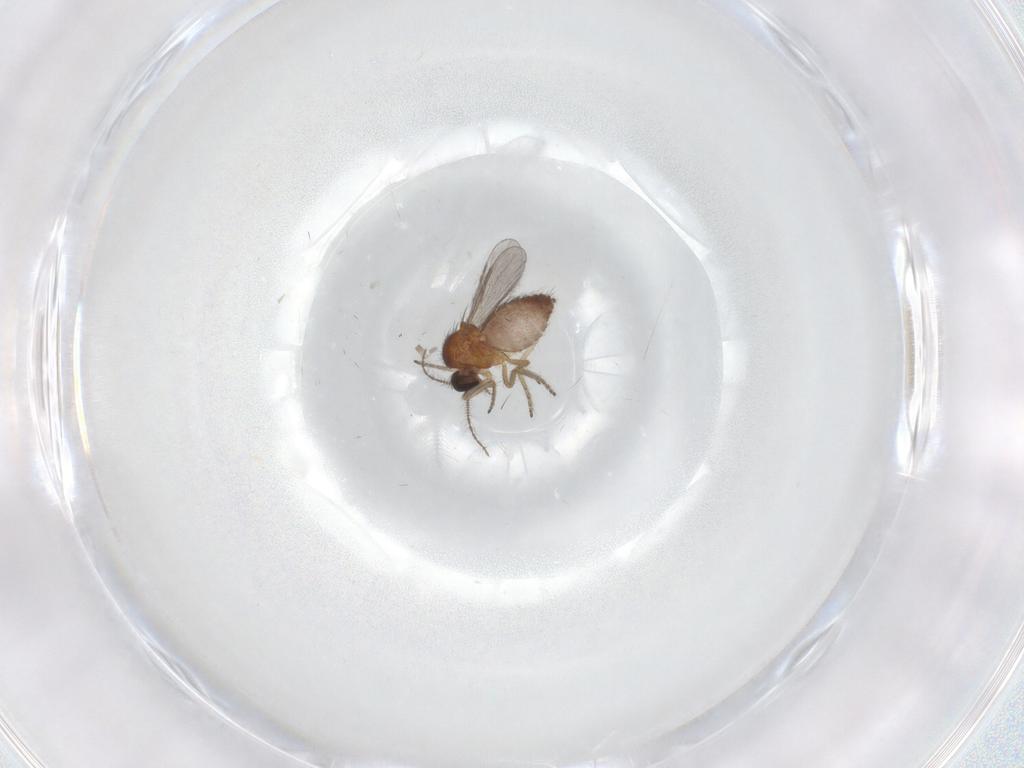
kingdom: Animalia
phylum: Arthropoda
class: Insecta
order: Diptera
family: Ceratopogonidae
